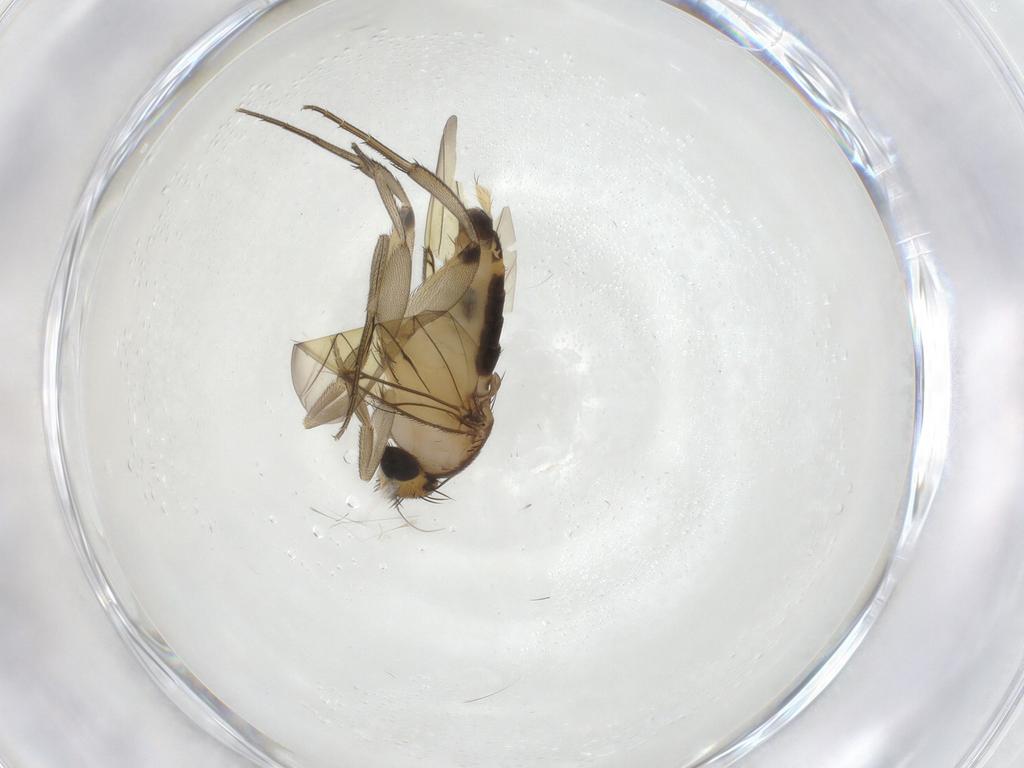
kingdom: Animalia
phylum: Arthropoda
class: Insecta
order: Diptera
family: Phoridae
